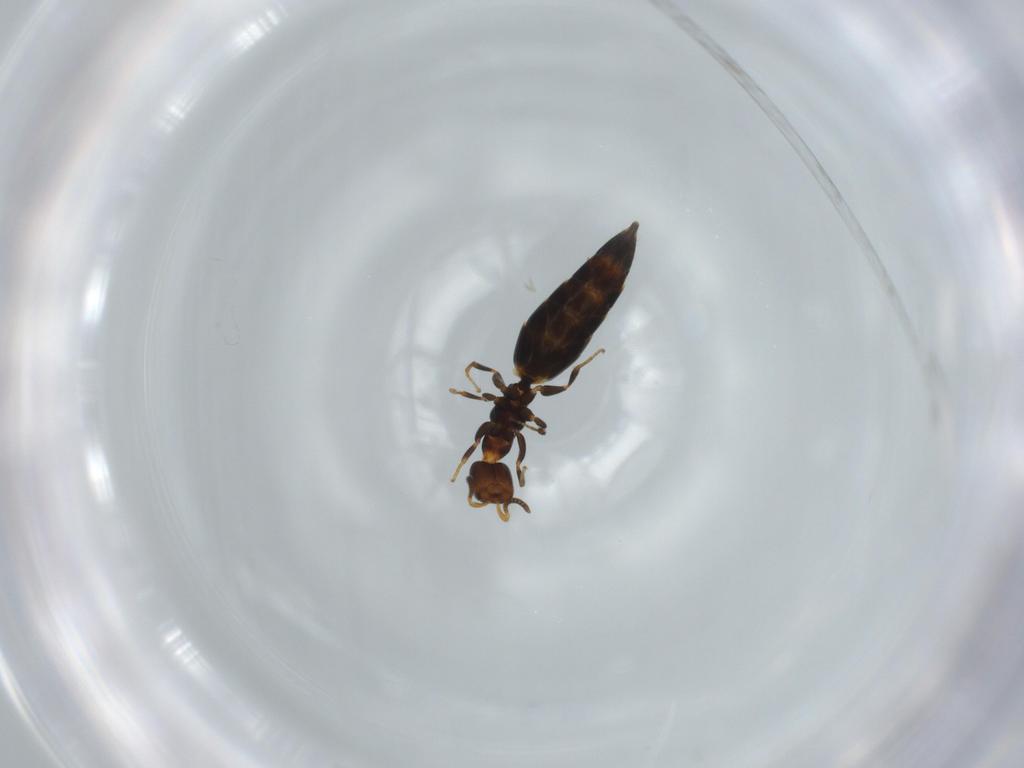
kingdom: Animalia
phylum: Arthropoda
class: Insecta
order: Hymenoptera
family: Bethylidae
